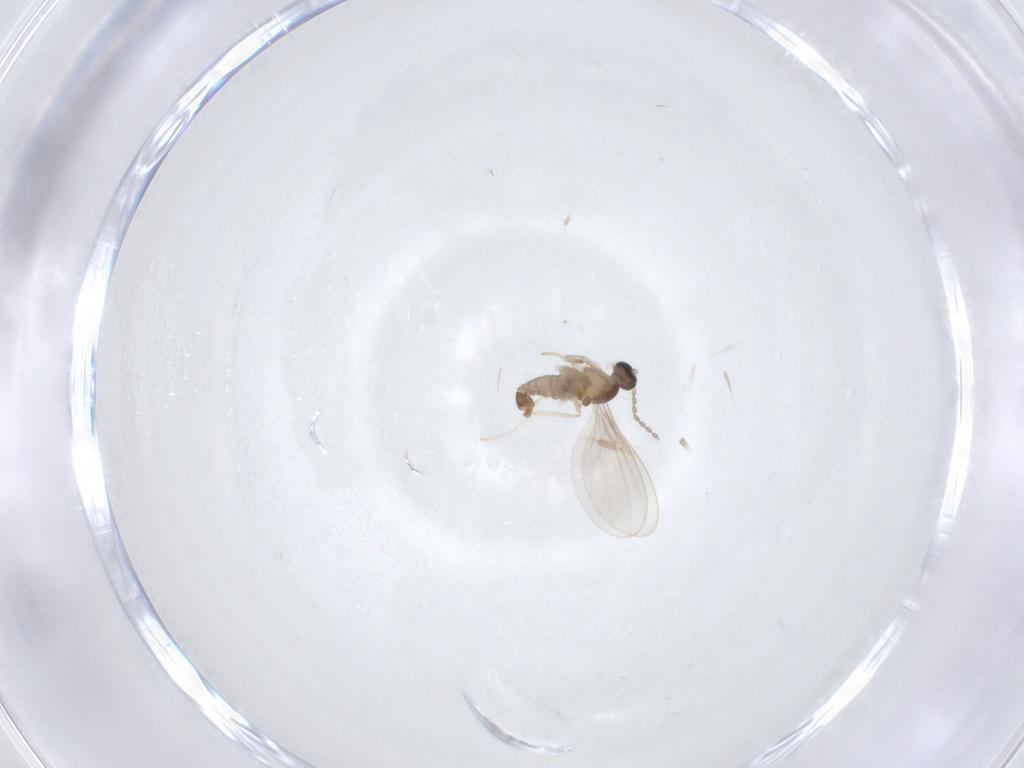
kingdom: Animalia
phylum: Arthropoda
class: Insecta
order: Diptera
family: Cecidomyiidae
